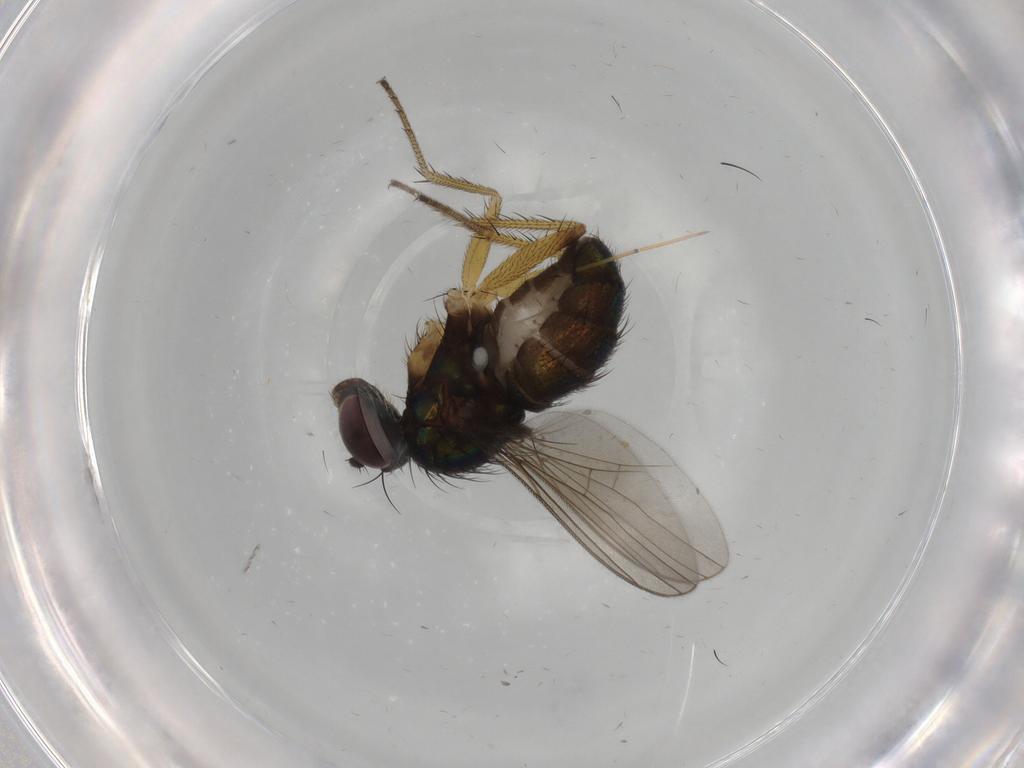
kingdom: Animalia
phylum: Arthropoda
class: Insecta
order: Diptera
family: Dolichopodidae
